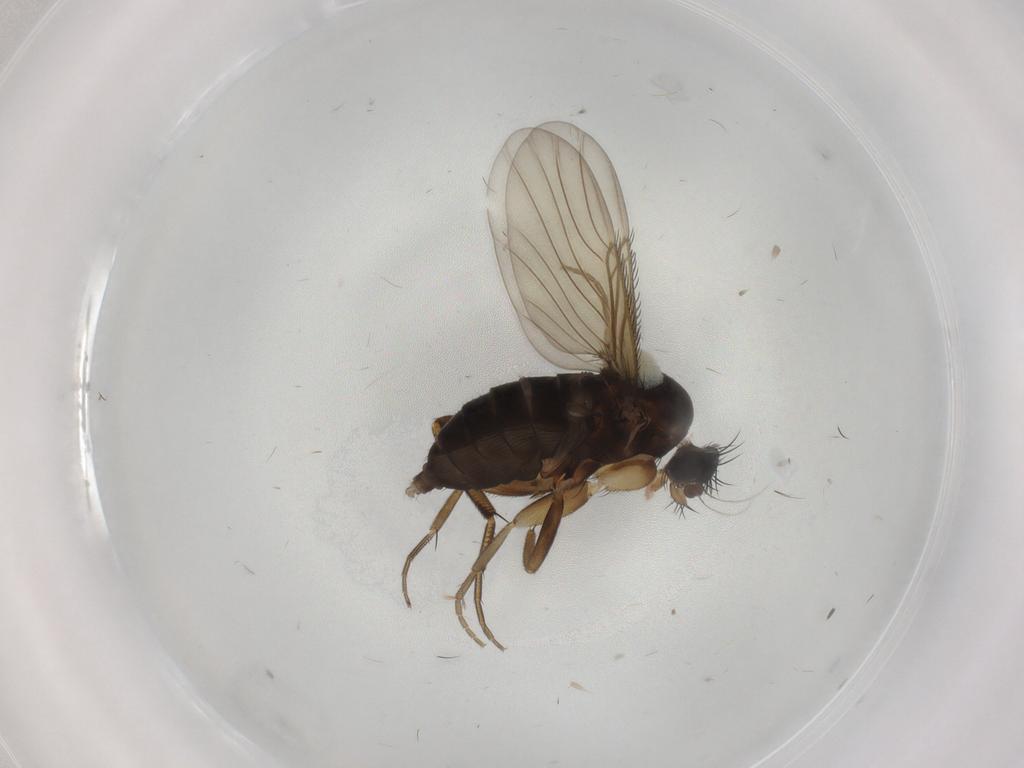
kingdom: Animalia
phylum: Arthropoda
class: Insecta
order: Diptera
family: Phoridae
